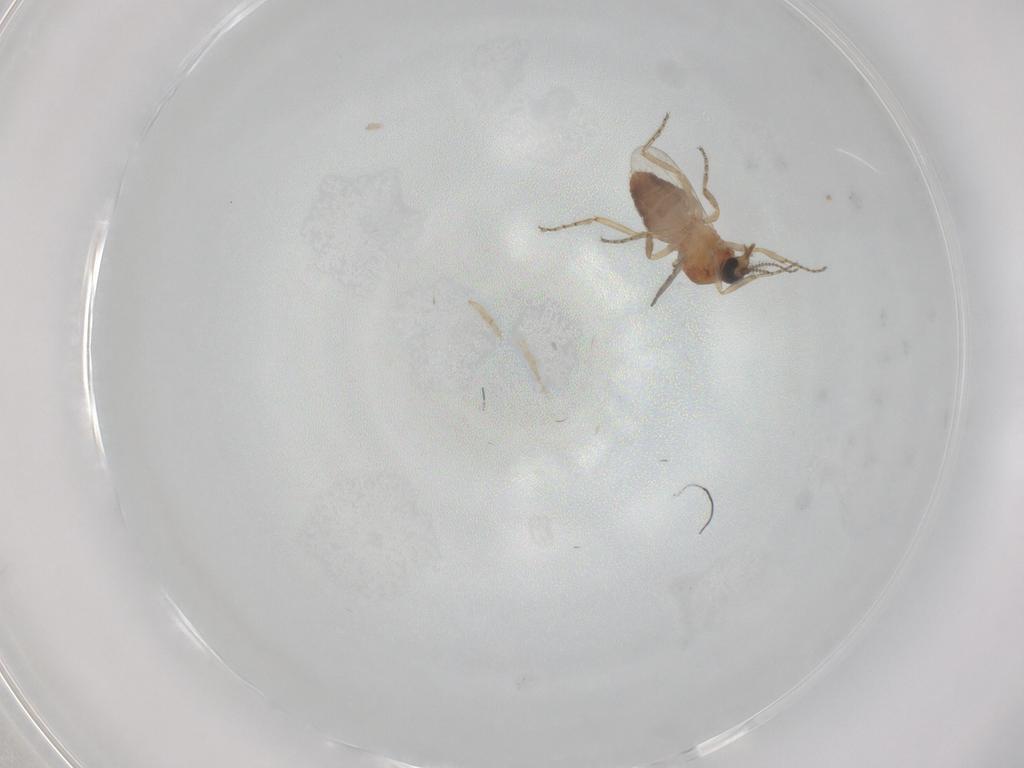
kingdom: Animalia
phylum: Arthropoda
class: Insecta
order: Diptera
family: Ceratopogonidae
